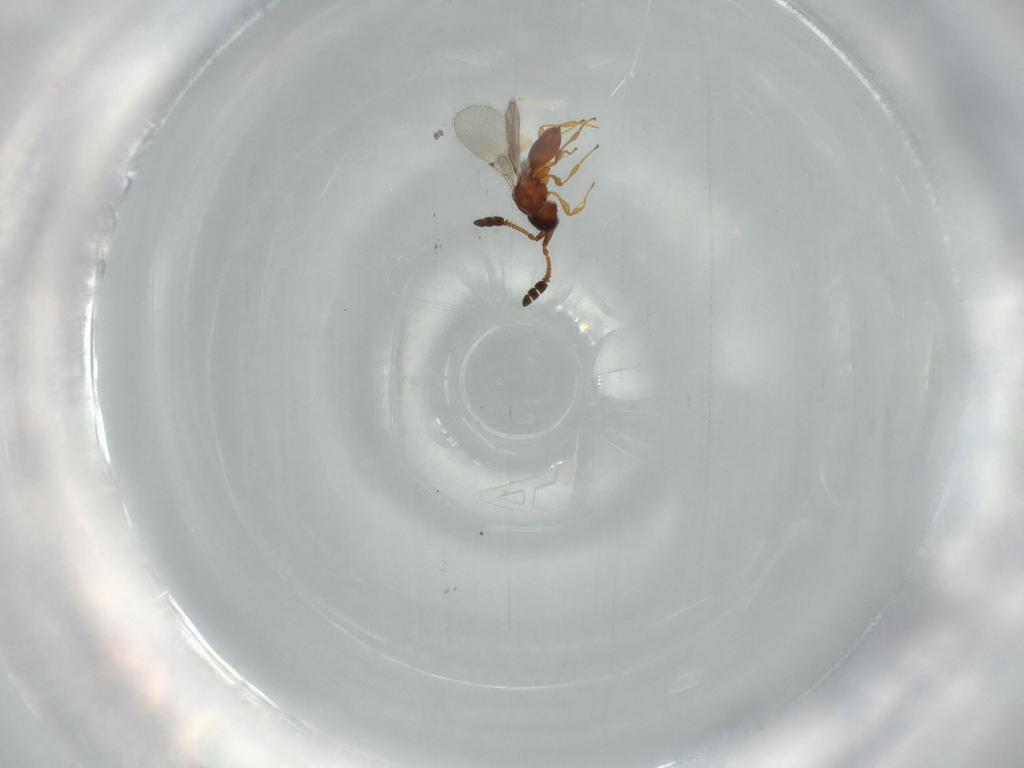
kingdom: Animalia
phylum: Arthropoda
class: Insecta
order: Hymenoptera
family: Diapriidae
